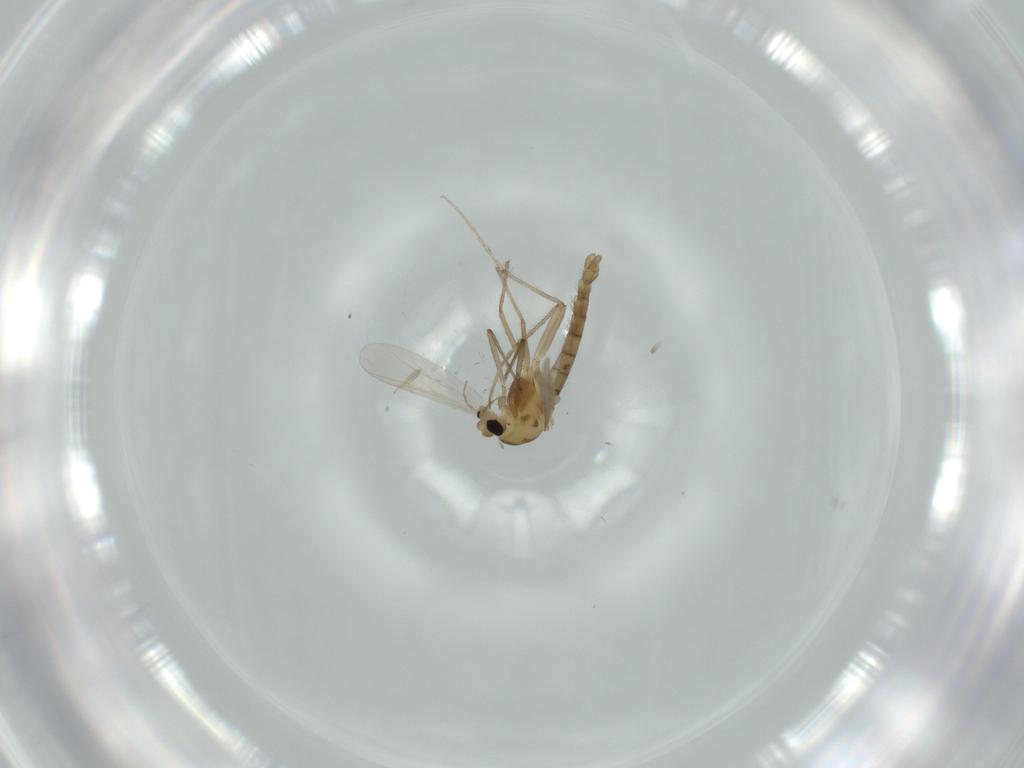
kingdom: Animalia
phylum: Arthropoda
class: Insecta
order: Diptera
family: Chironomidae
